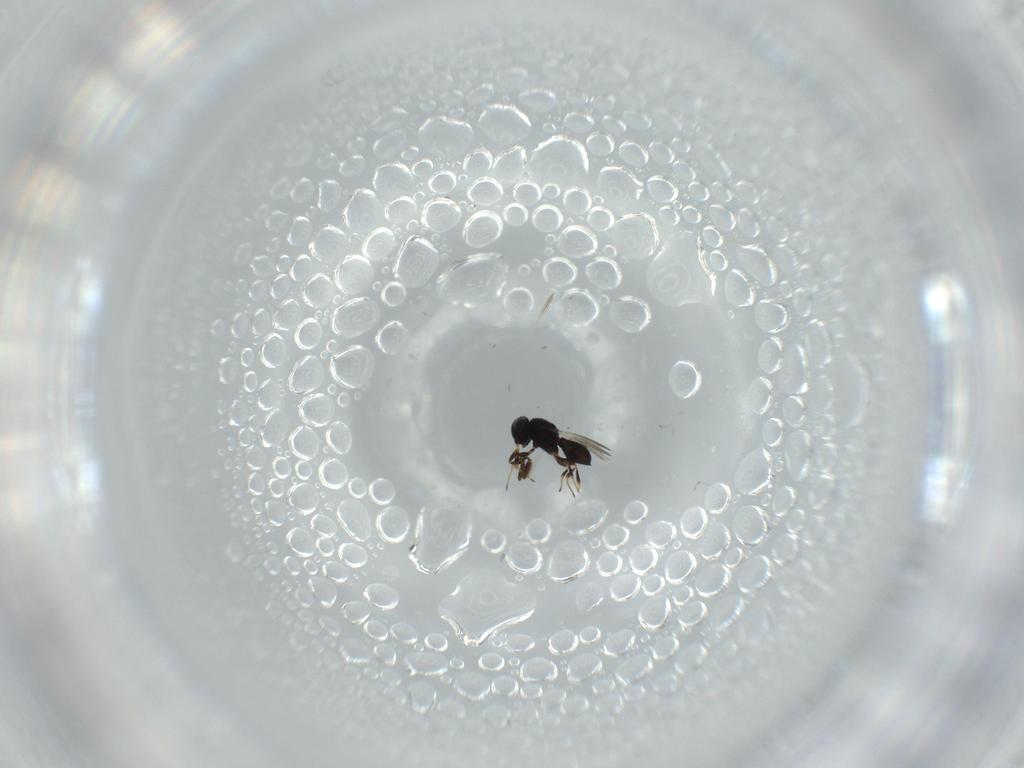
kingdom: Animalia
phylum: Arthropoda
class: Insecta
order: Hymenoptera
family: Scelionidae
